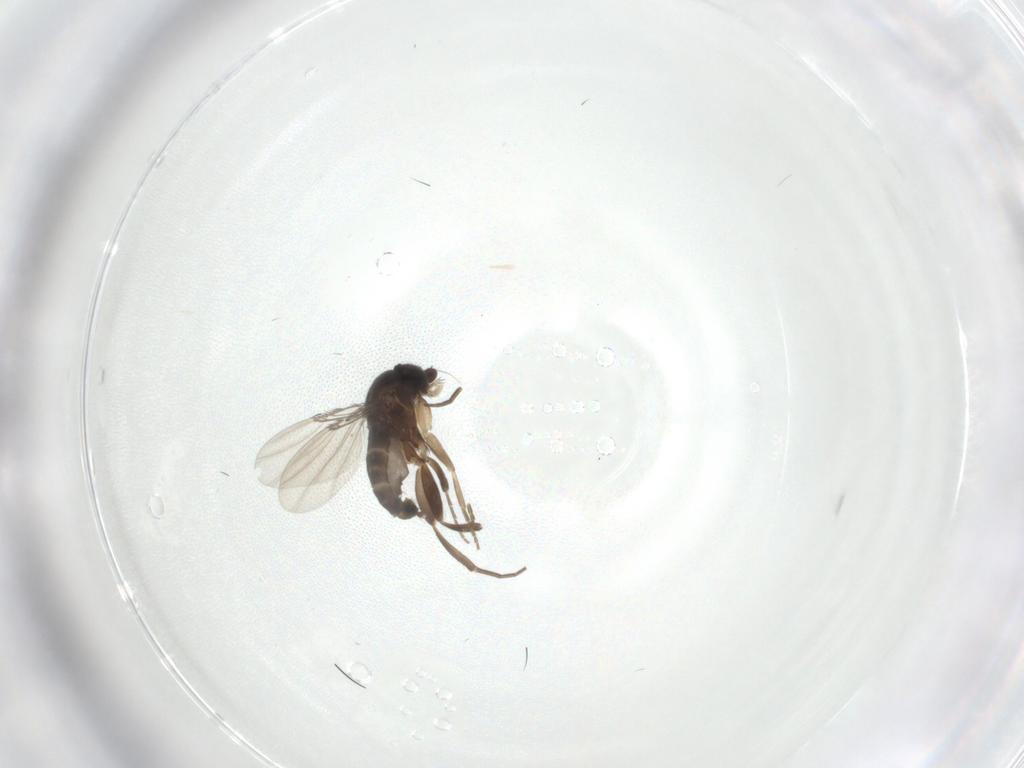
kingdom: Animalia
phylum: Arthropoda
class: Insecta
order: Diptera
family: Phoridae
